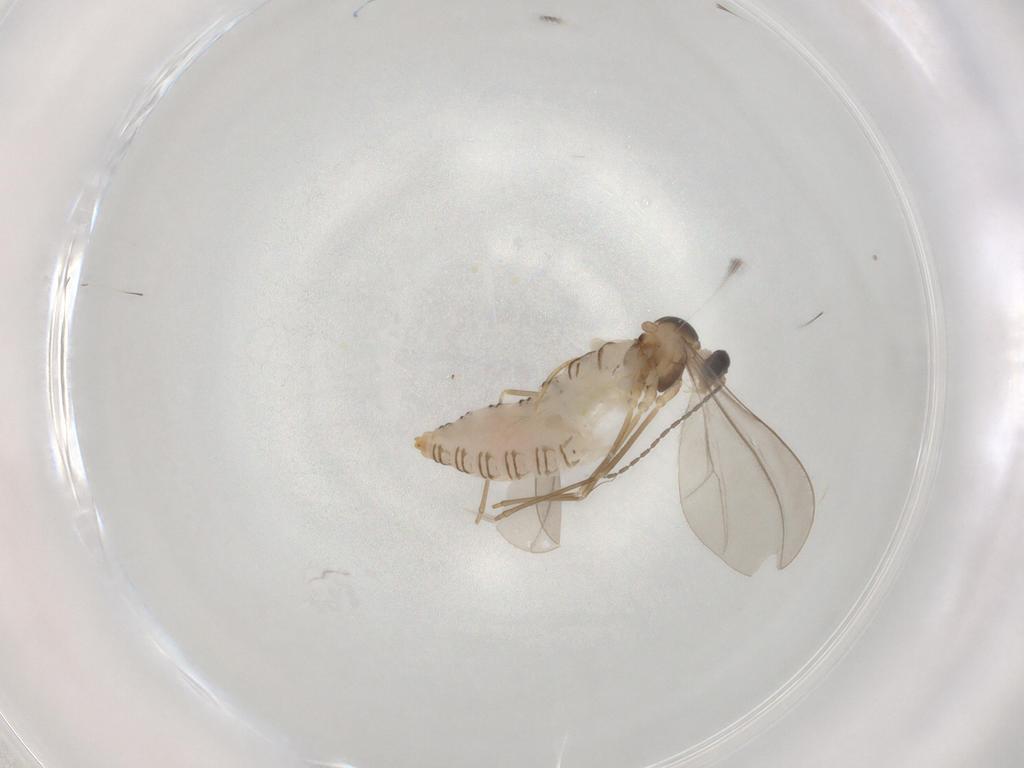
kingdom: Animalia
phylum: Arthropoda
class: Insecta
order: Diptera
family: Cecidomyiidae
